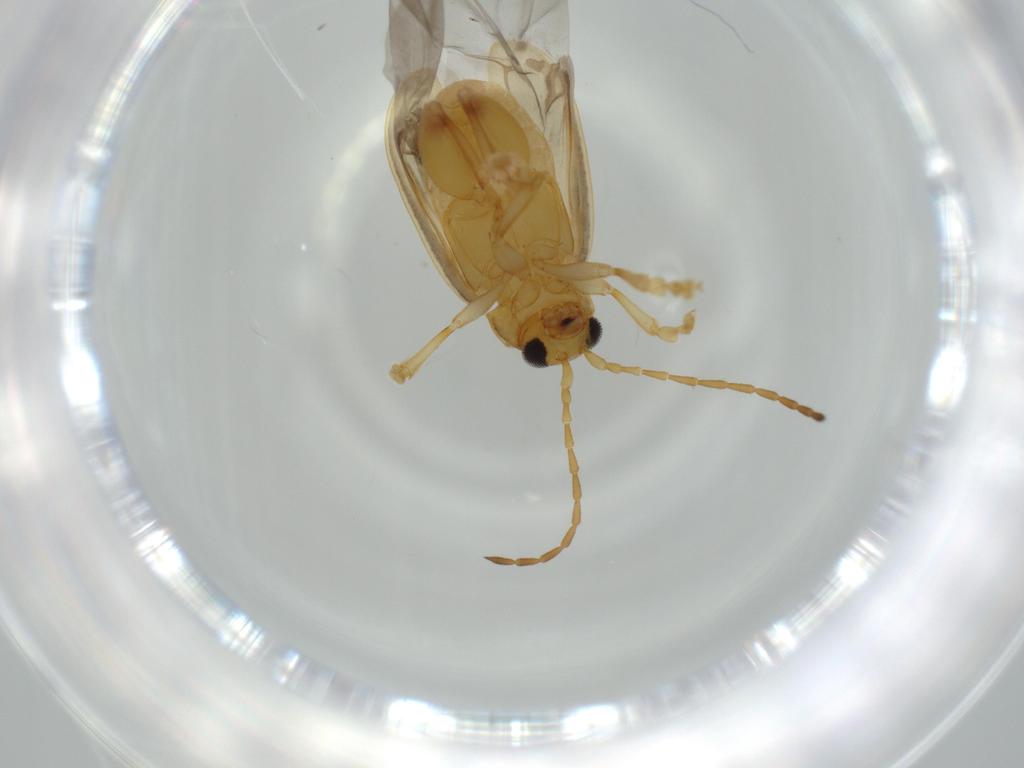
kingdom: Animalia
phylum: Arthropoda
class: Insecta
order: Coleoptera
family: Chrysomelidae
